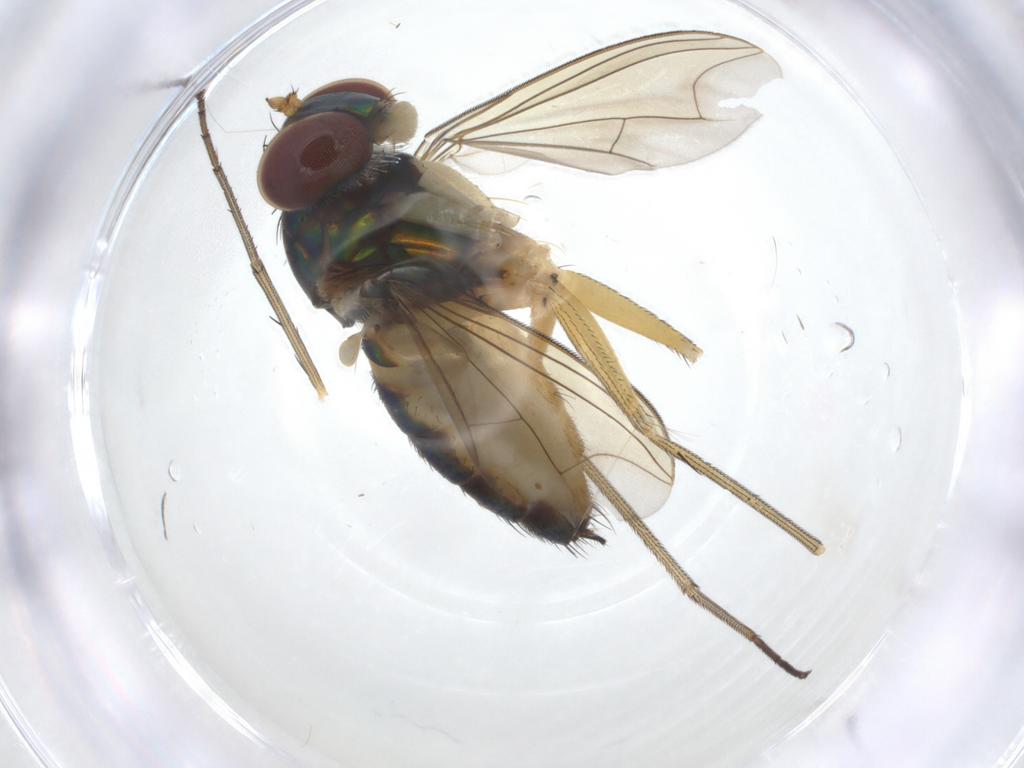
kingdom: Animalia
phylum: Arthropoda
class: Insecta
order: Diptera
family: Dolichopodidae
